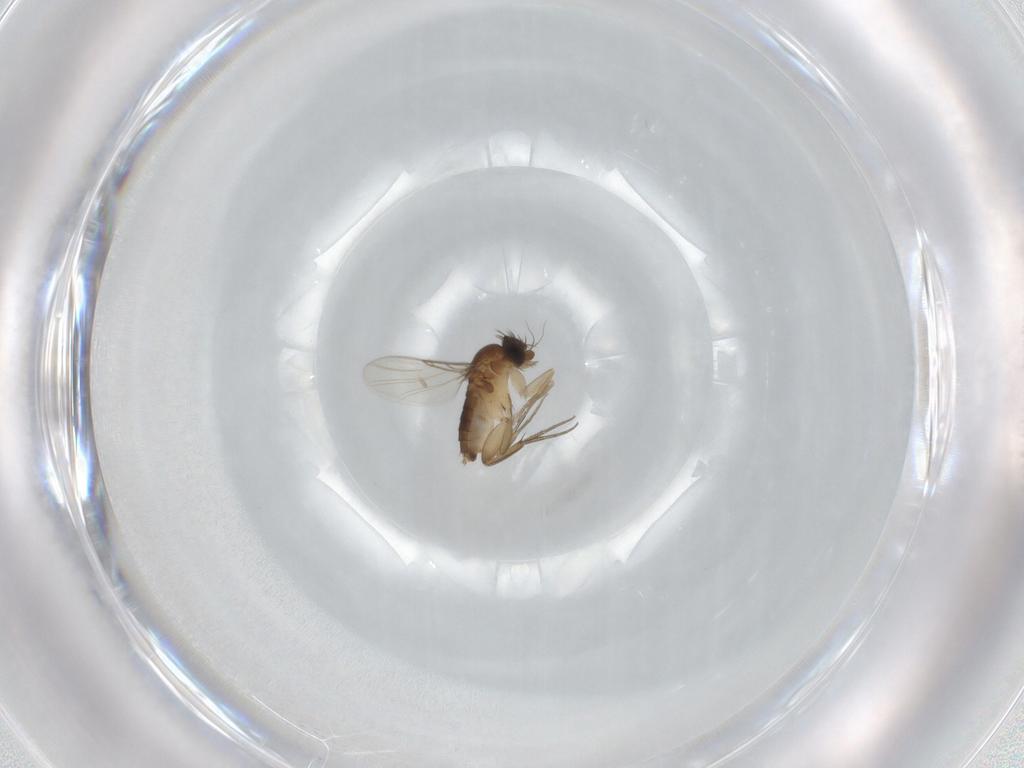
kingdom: Animalia
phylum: Arthropoda
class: Insecta
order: Diptera
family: Phoridae
